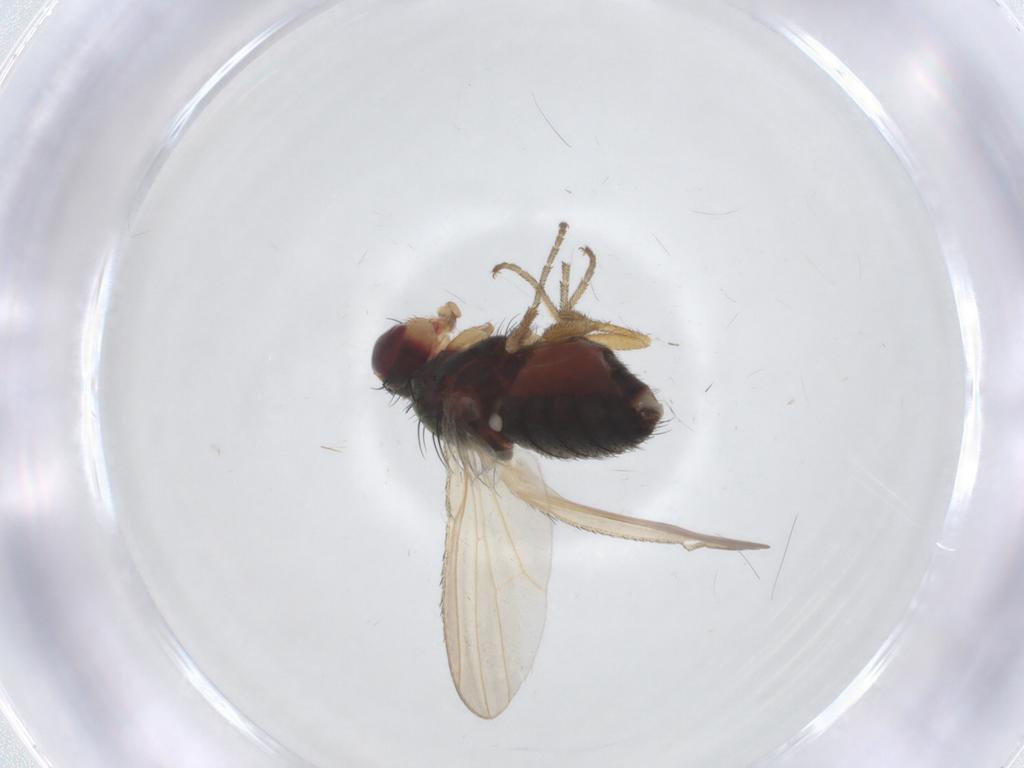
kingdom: Animalia
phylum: Arthropoda
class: Insecta
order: Diptera
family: Heleomyzidae
